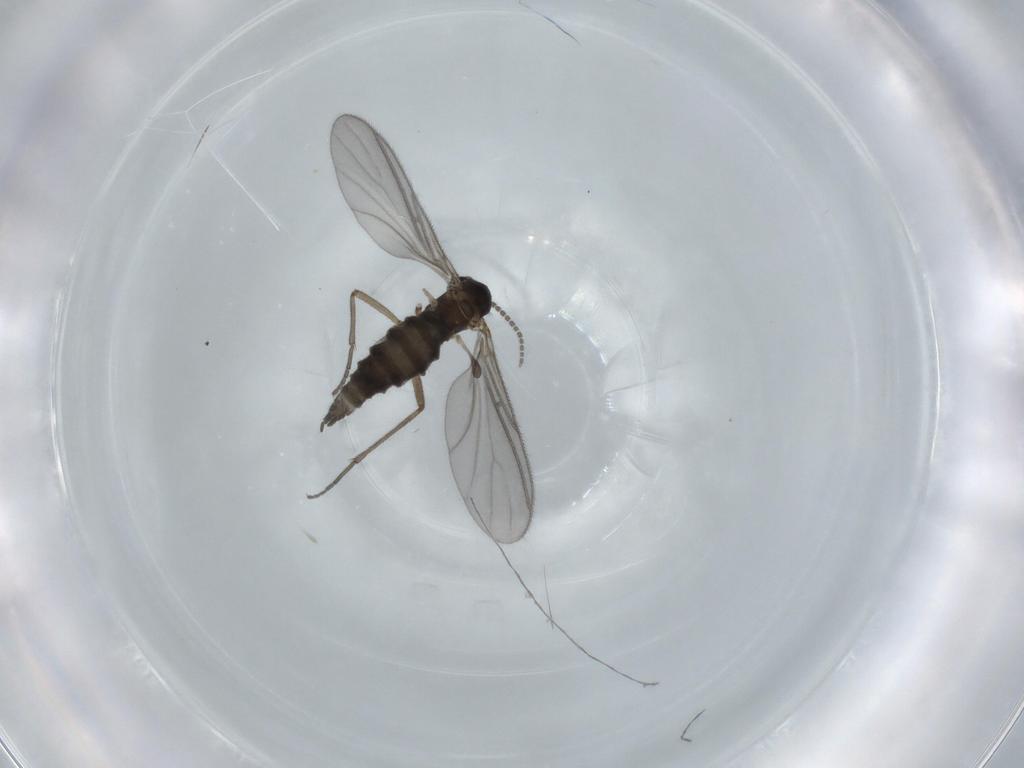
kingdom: Animalia
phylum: Arthropoda
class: Insecta
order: Diptera
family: Sciaridae
